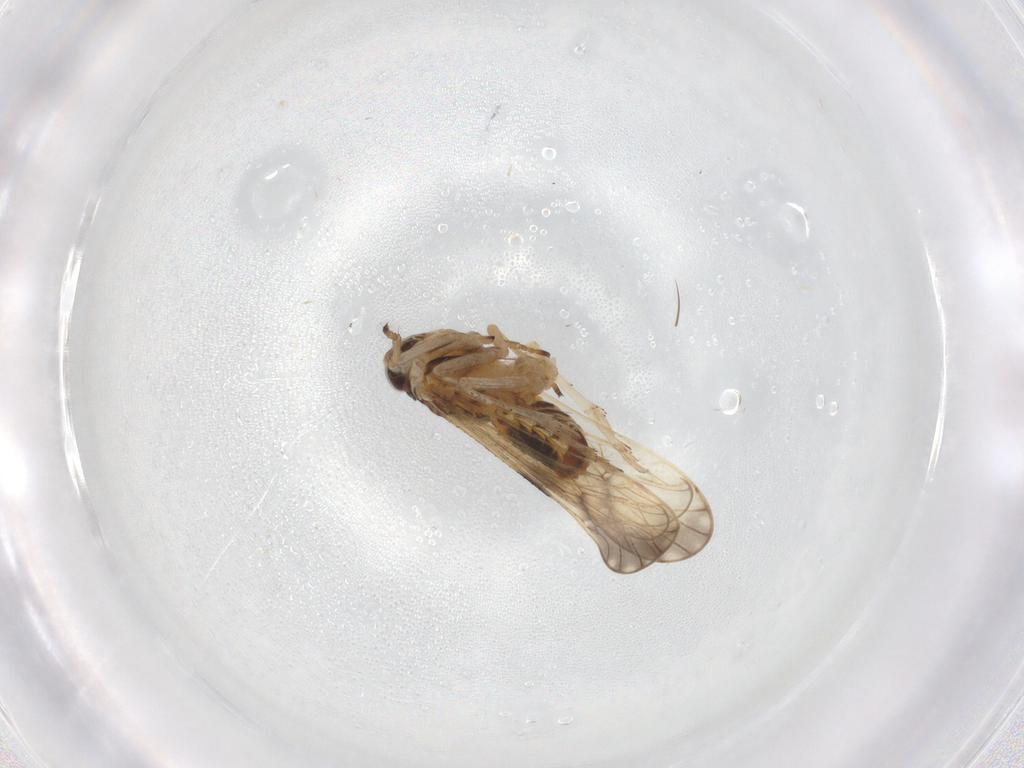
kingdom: Animalia
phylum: Arthropoda
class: Insecta
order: Hemiptera
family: Delphacidae
